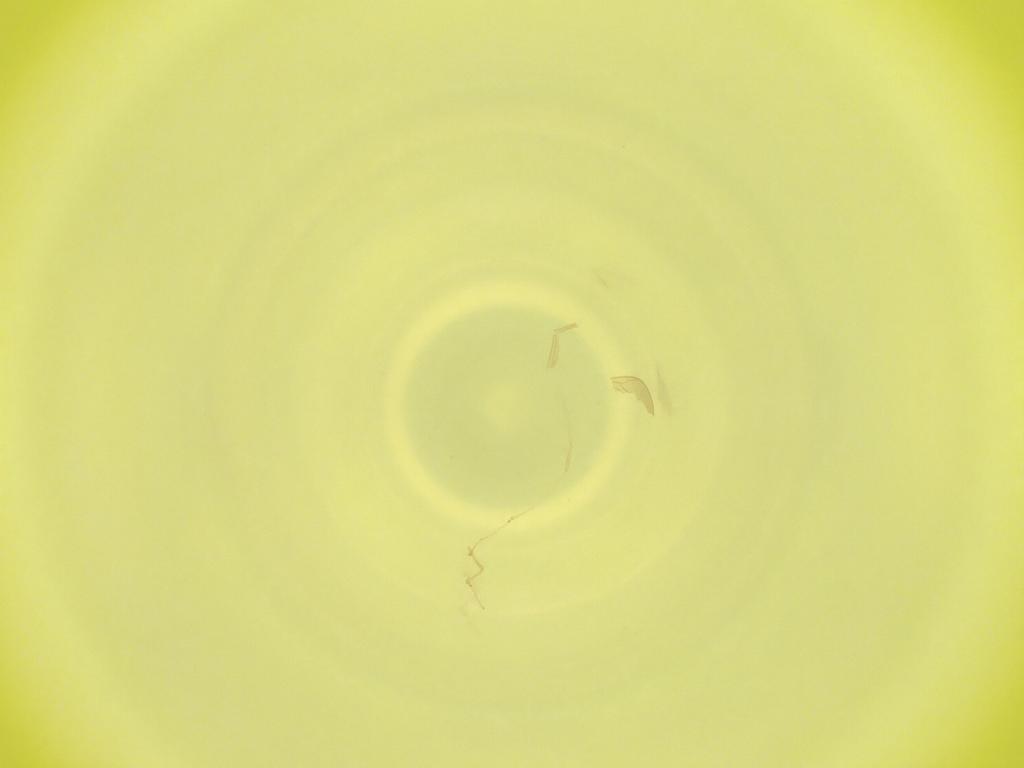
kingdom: Animalia
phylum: Arthropoda
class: Insecta
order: Diptera
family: Cecidomyiidae
